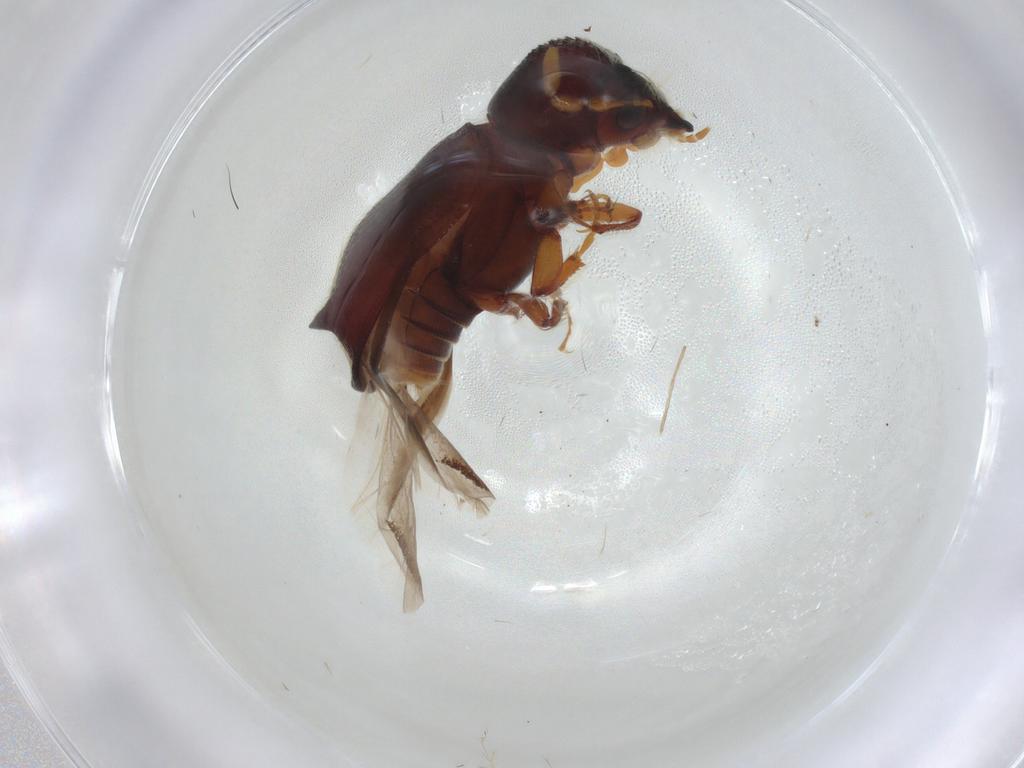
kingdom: Animalia
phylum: Arthropoda
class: Insecta
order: Coleoptera
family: Bostrichidae
